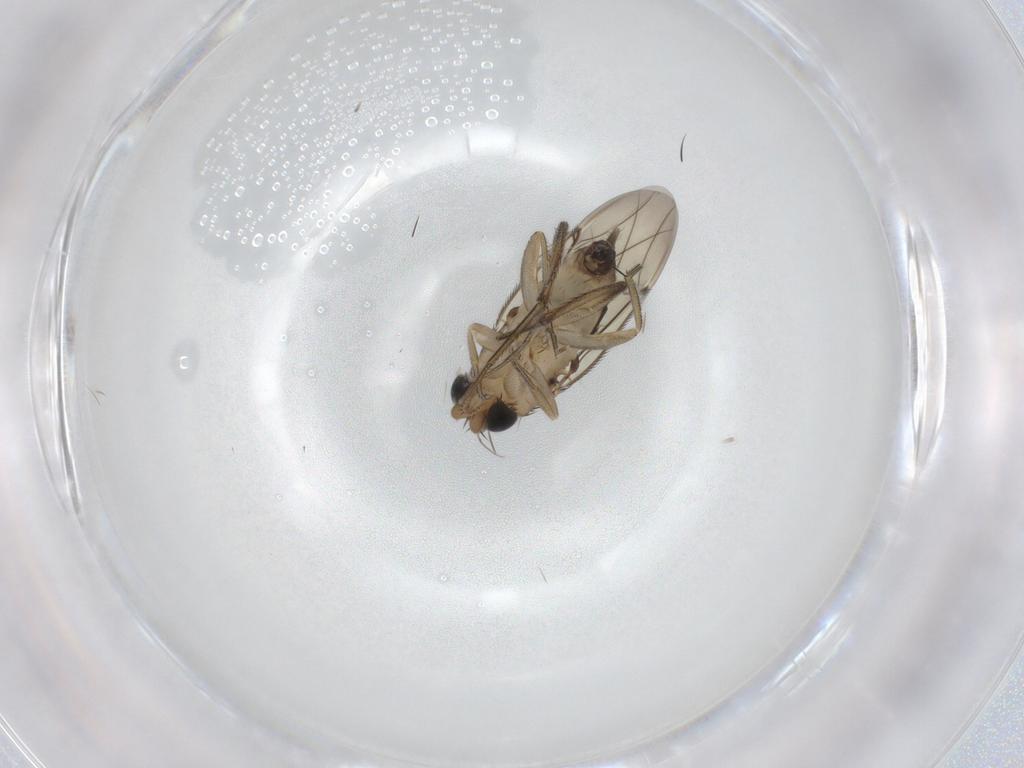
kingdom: Animalia
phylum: Arthropoda
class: Insecta
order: Diptera
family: Phoridae
